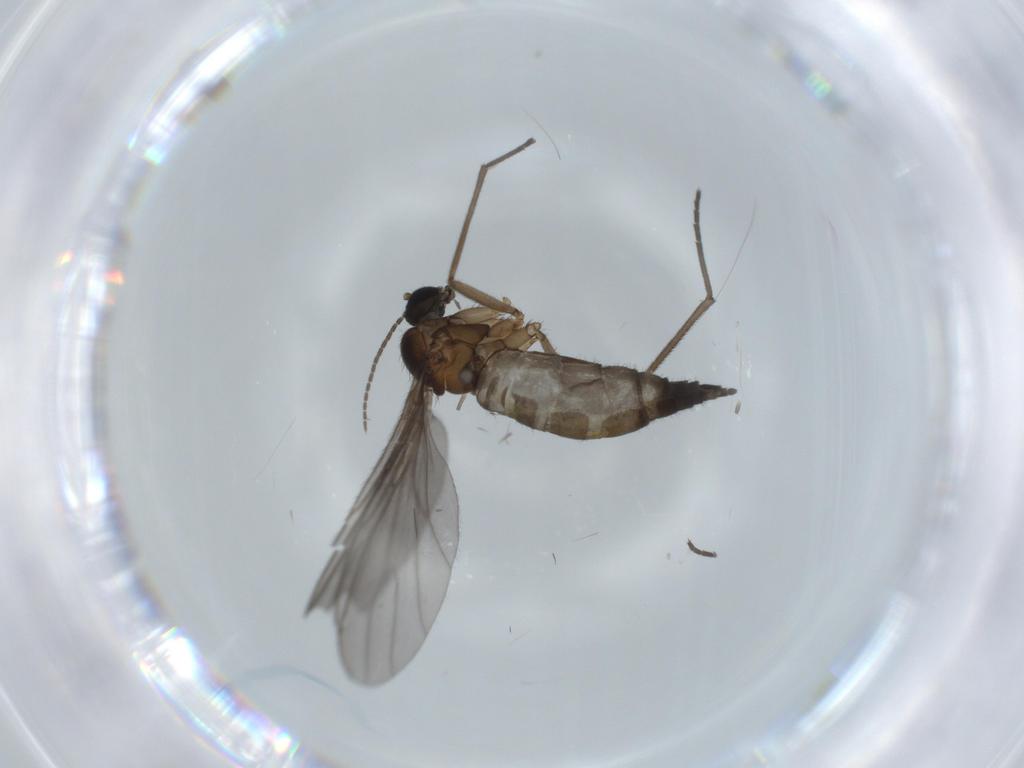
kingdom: Animalia
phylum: Arthropoda
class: Insecta
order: Diptera
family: Sciaridae
